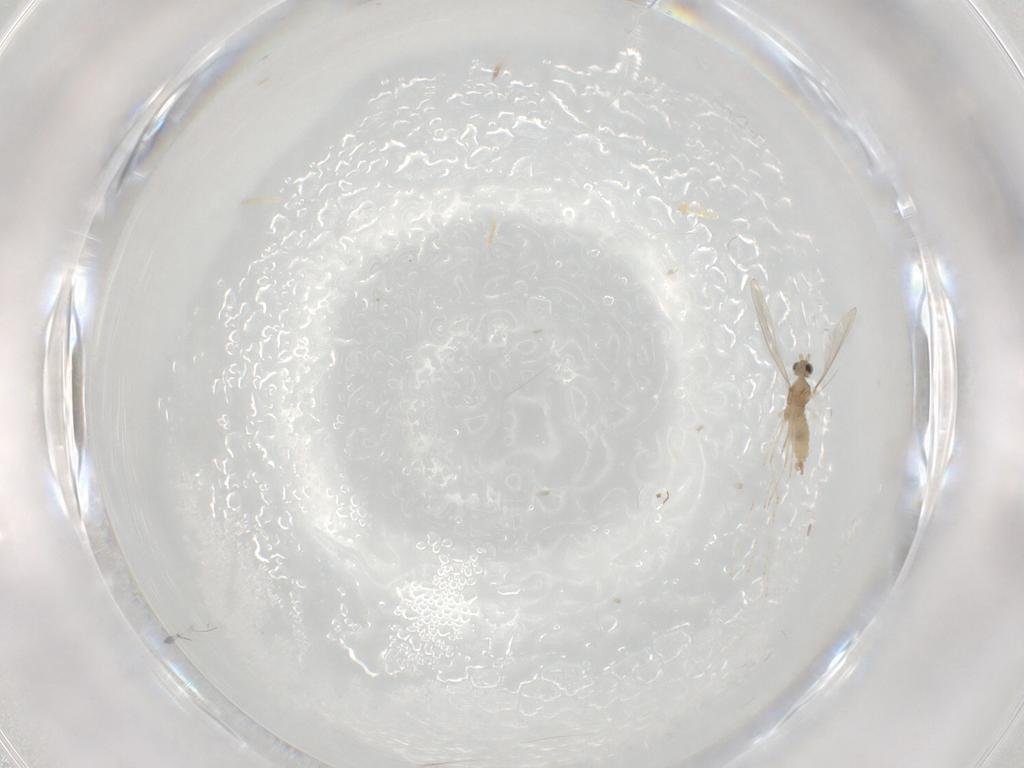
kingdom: Animalia
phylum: Arthropoda
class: Insecta
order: Diptera
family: Cecidomyiidae
